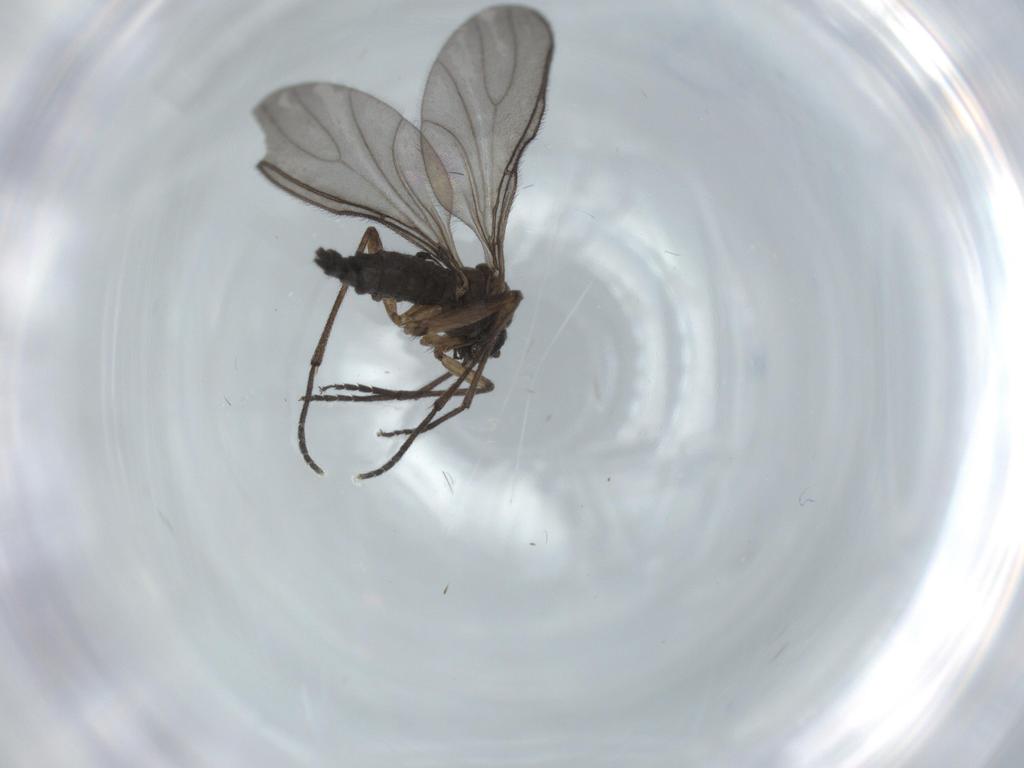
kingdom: Animalia
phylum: Arthropoda
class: Insecta
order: Diptera
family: Sciaridae
